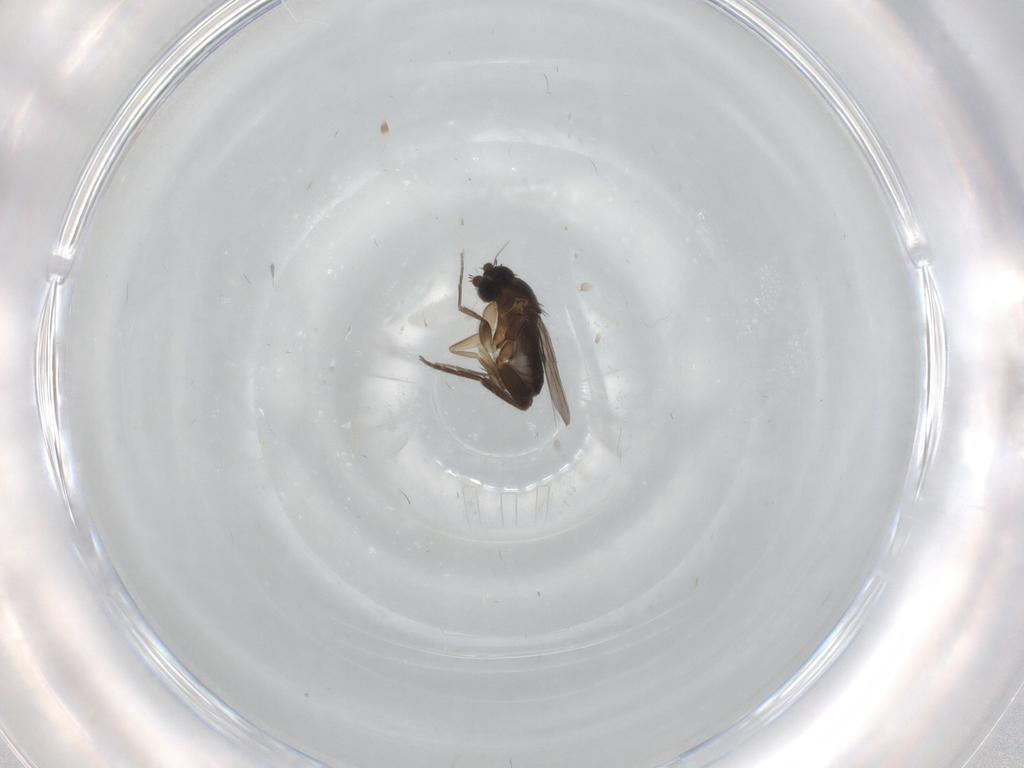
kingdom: Animalia
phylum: Arthropoda
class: Insecta
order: Diptera
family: Phoridae
